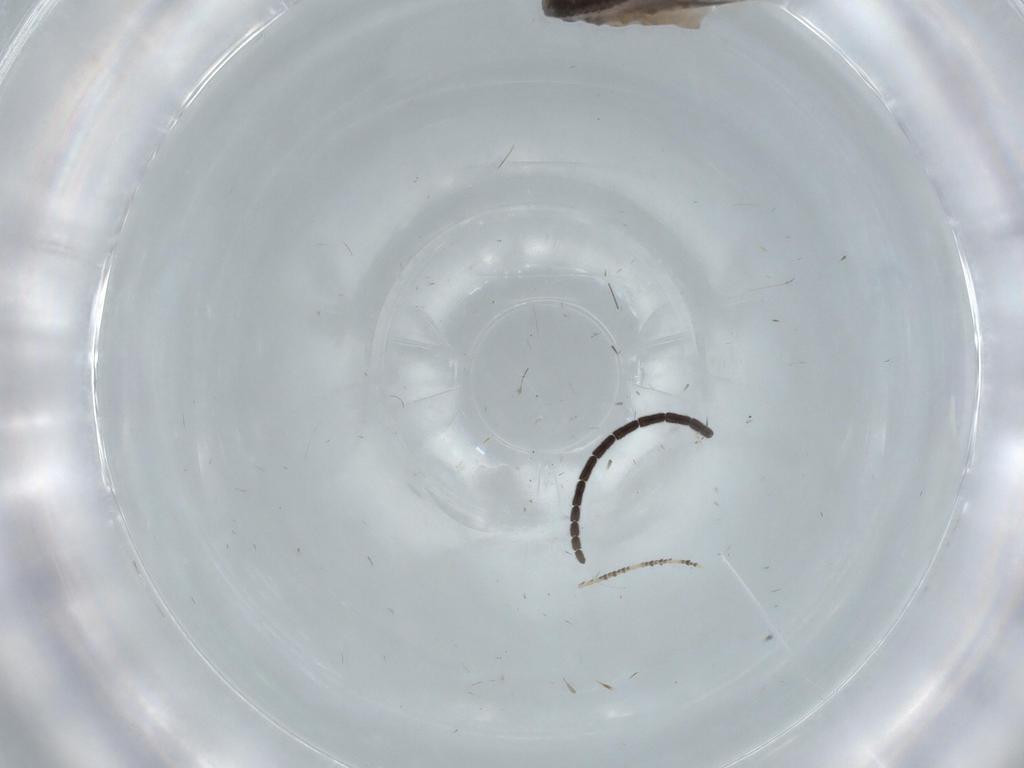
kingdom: Animalia
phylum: Arthropoda
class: Insecta
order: Lepidoptera
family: Tineidae
